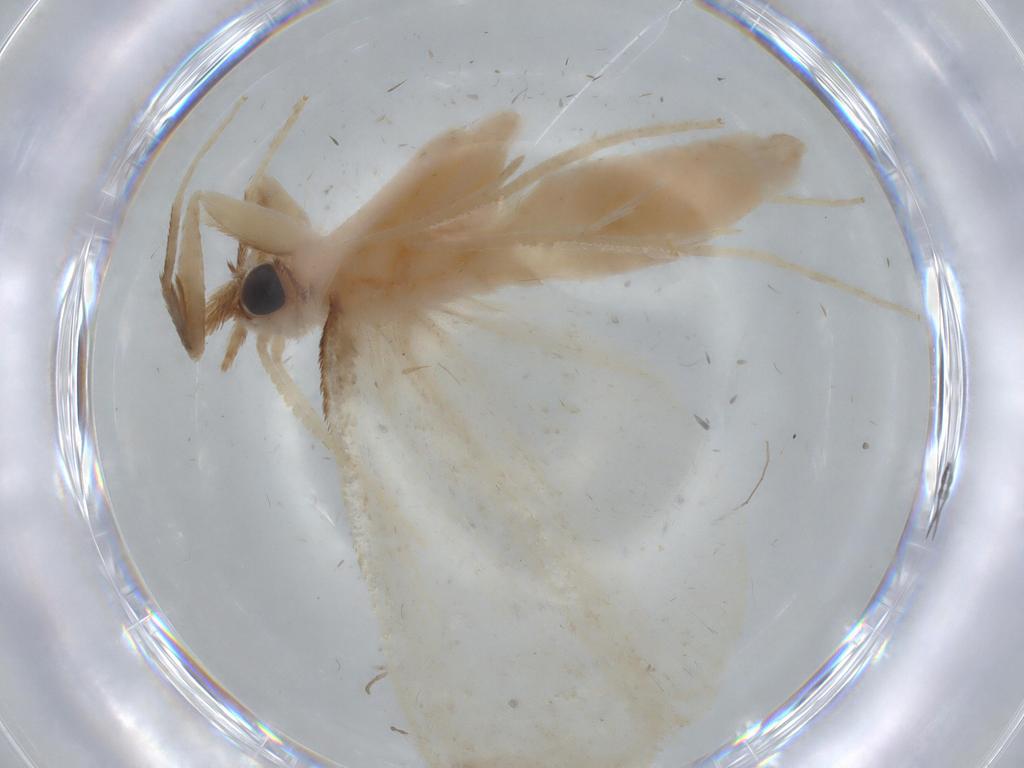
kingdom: Animalia
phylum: Arthropoda
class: Insecta
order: Lepidoptera
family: Crambidae
